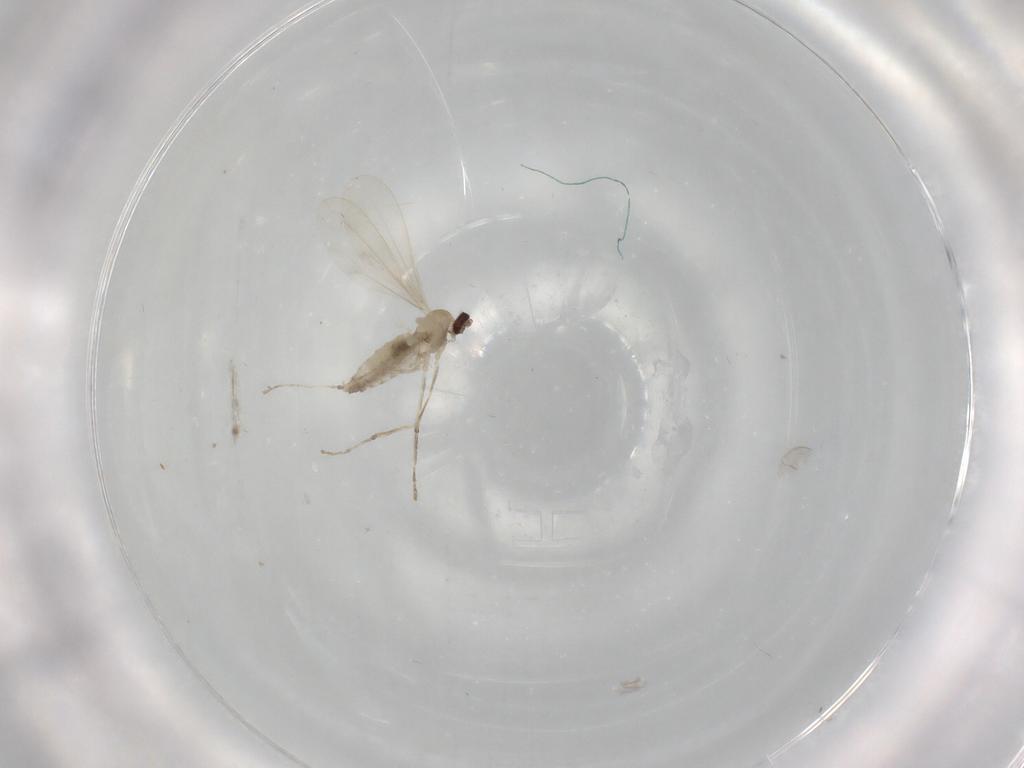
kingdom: Animalia
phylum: Arthropoda
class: Insecta
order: Diptera
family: Cecidomyiidae
